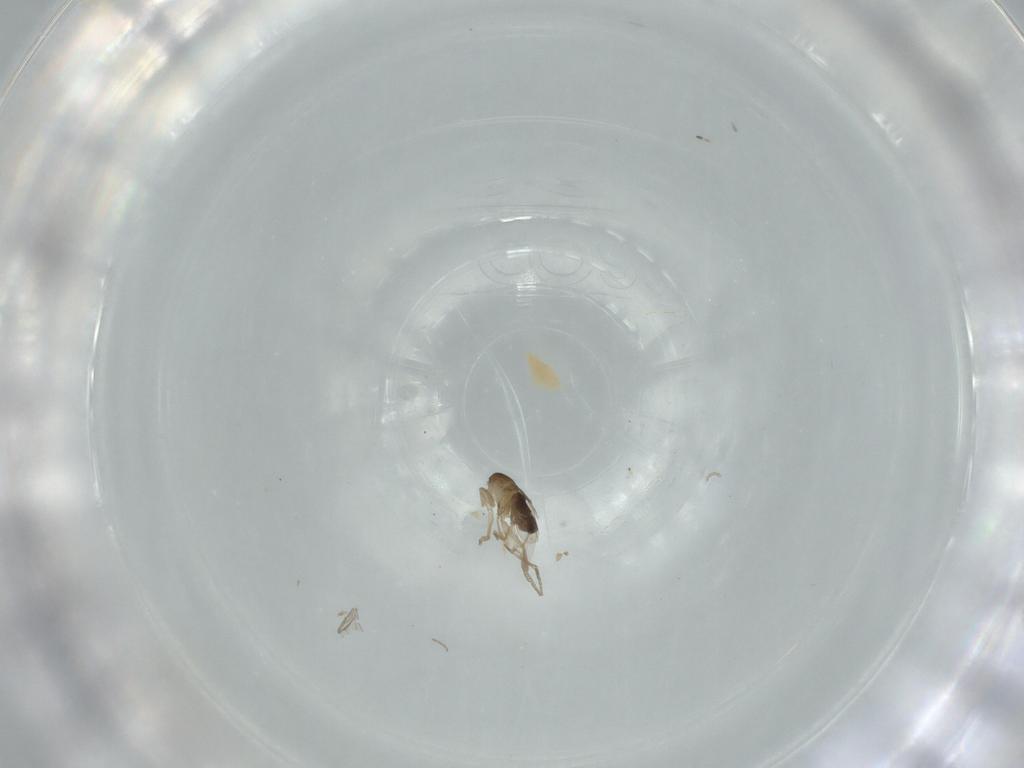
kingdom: Animalia
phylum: Arthropoda
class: Insecta
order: Diptera
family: Cecidomyiidae
